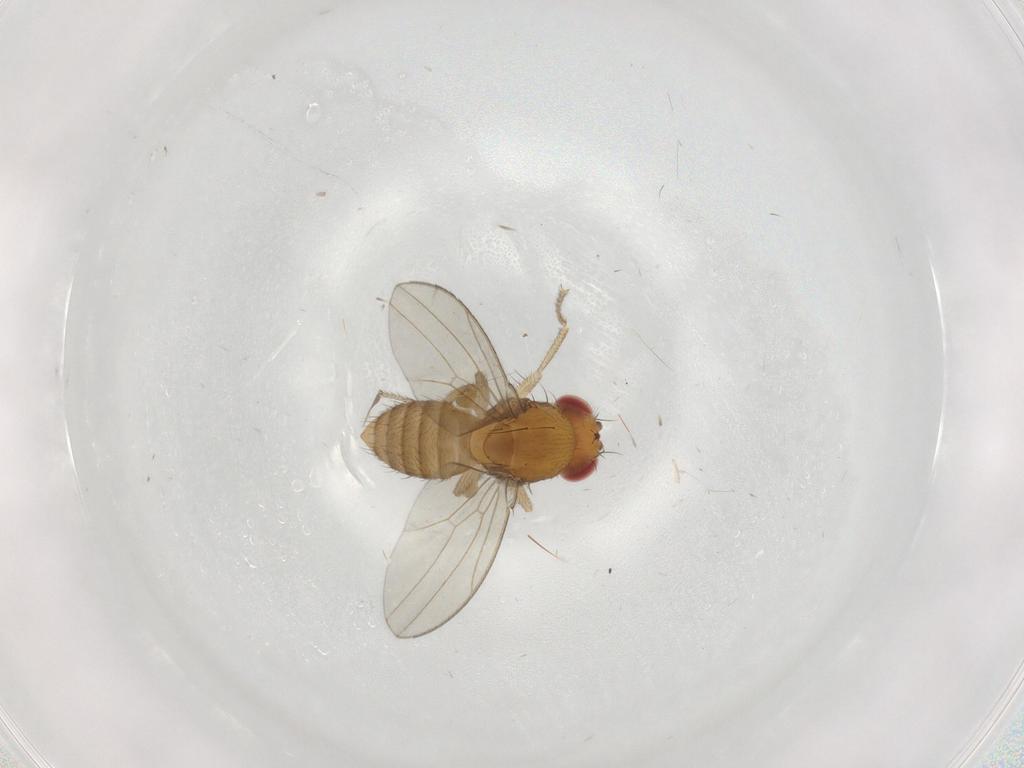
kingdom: Animalia
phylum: Arthropoda
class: Insecta
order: Diptera
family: Drosophilidae
